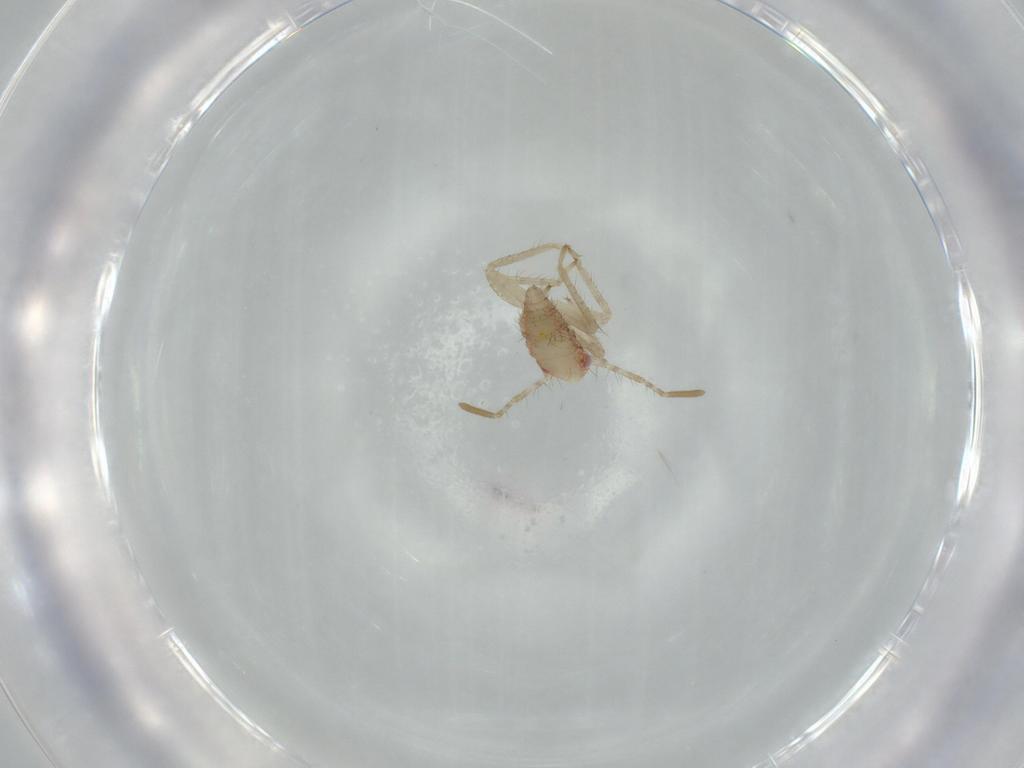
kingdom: Animalia
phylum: Arthropoda
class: Insecta
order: Hemiptera
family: Miridae
